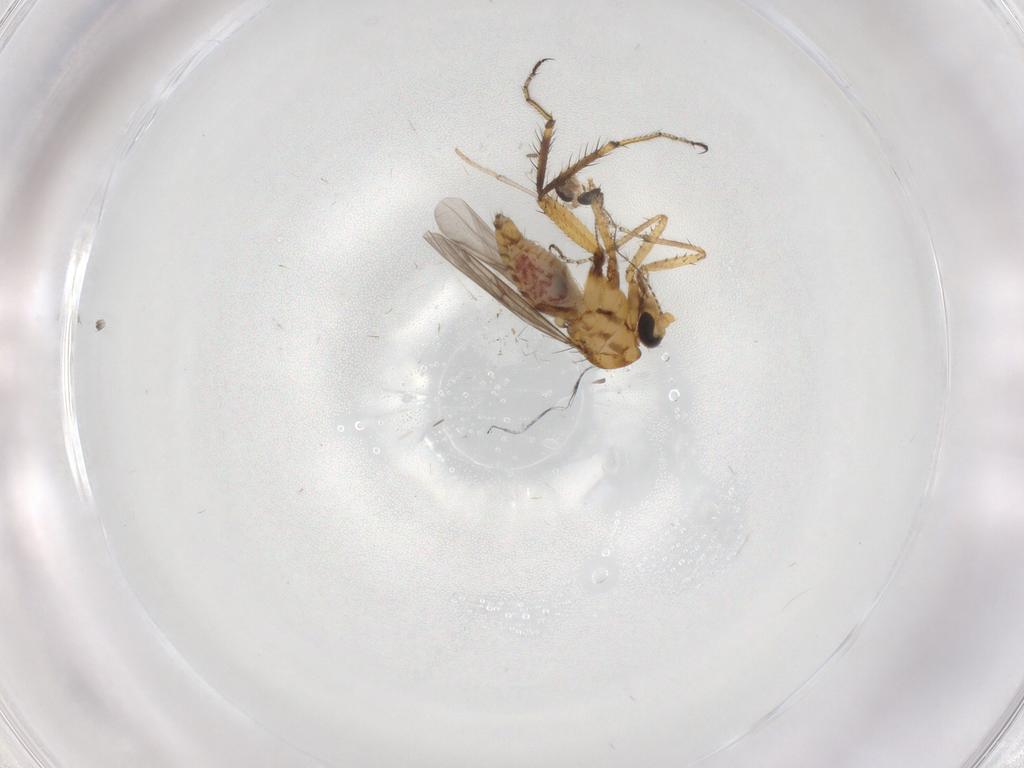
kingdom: Animalia
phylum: Arthropoda
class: Insecta
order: Diptera
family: Psychodidae
